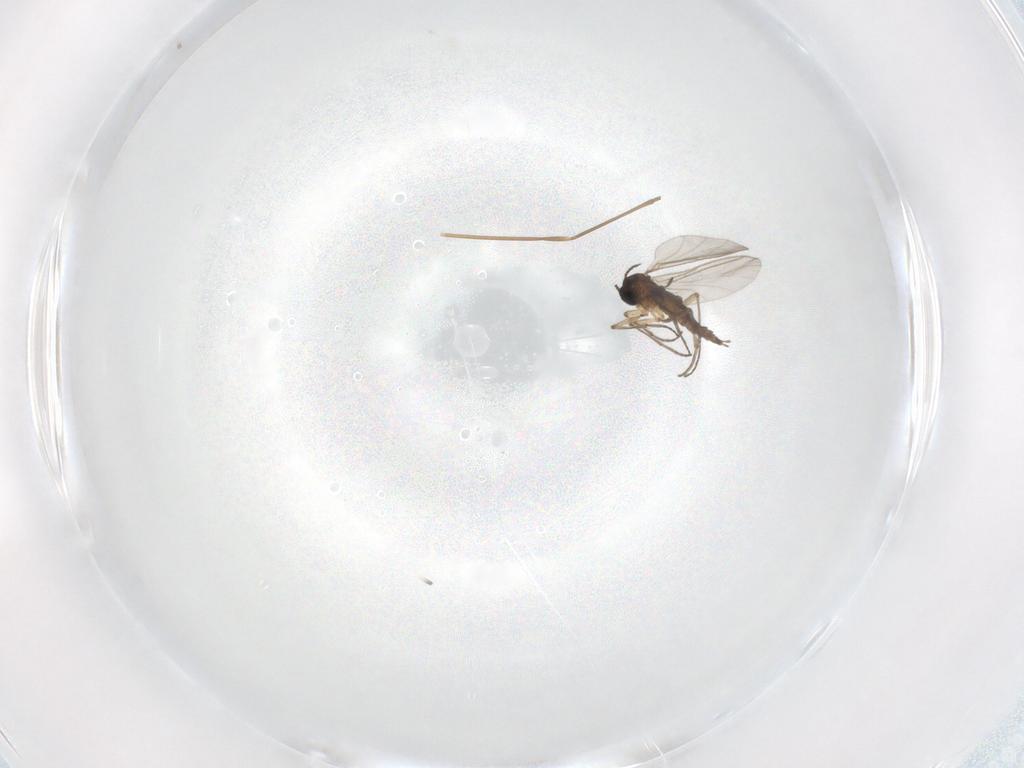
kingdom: Animalia
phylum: Arthropoda
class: Insecta
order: Diptera
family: Cecidomyiidae
